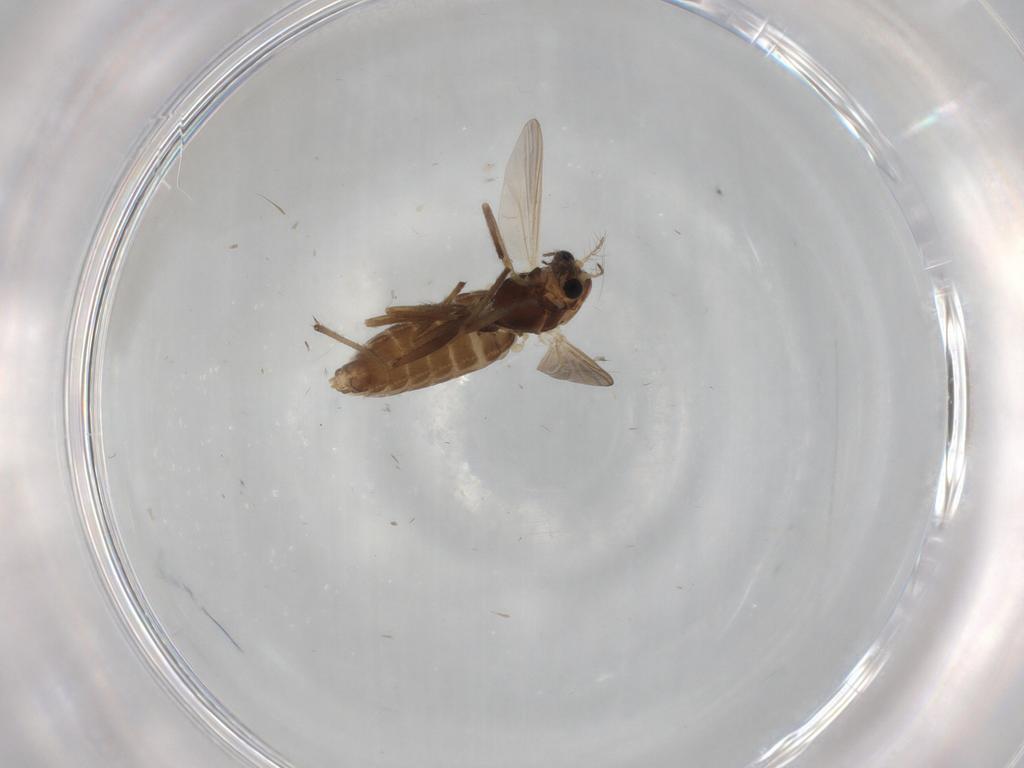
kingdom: Animalia
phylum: Arthropoda
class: Insecta
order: Diptera
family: Chironomidae
